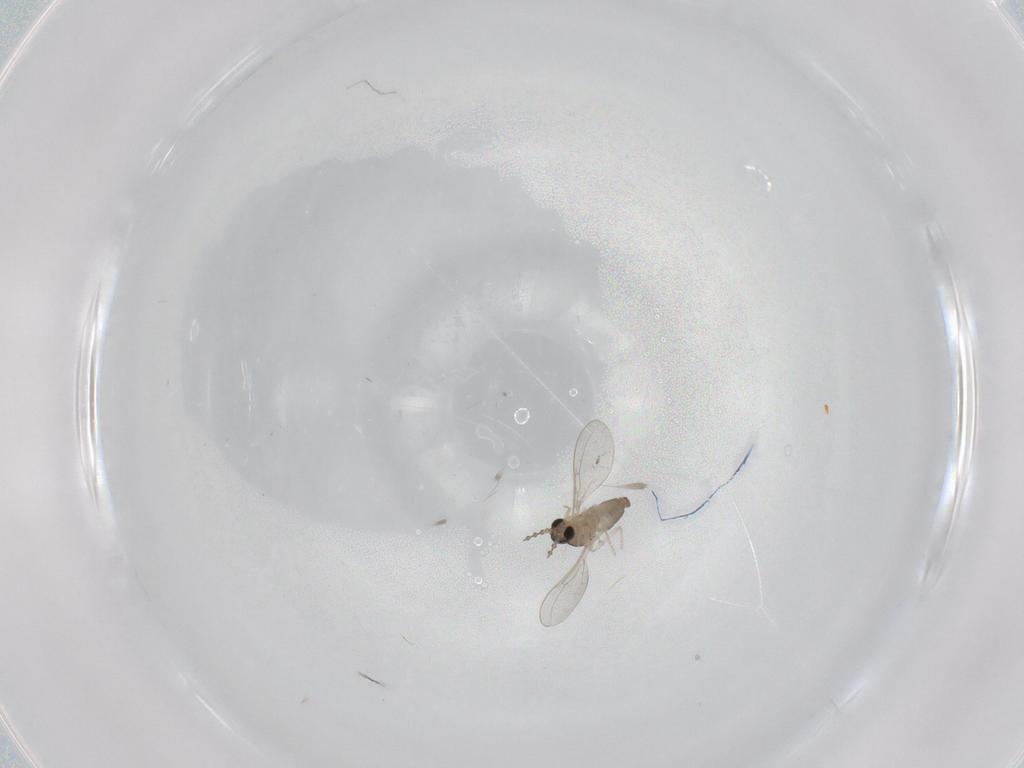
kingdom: Animalia
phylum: Arthropoda
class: Insecta
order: Diptera
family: Cecidomyiidae
